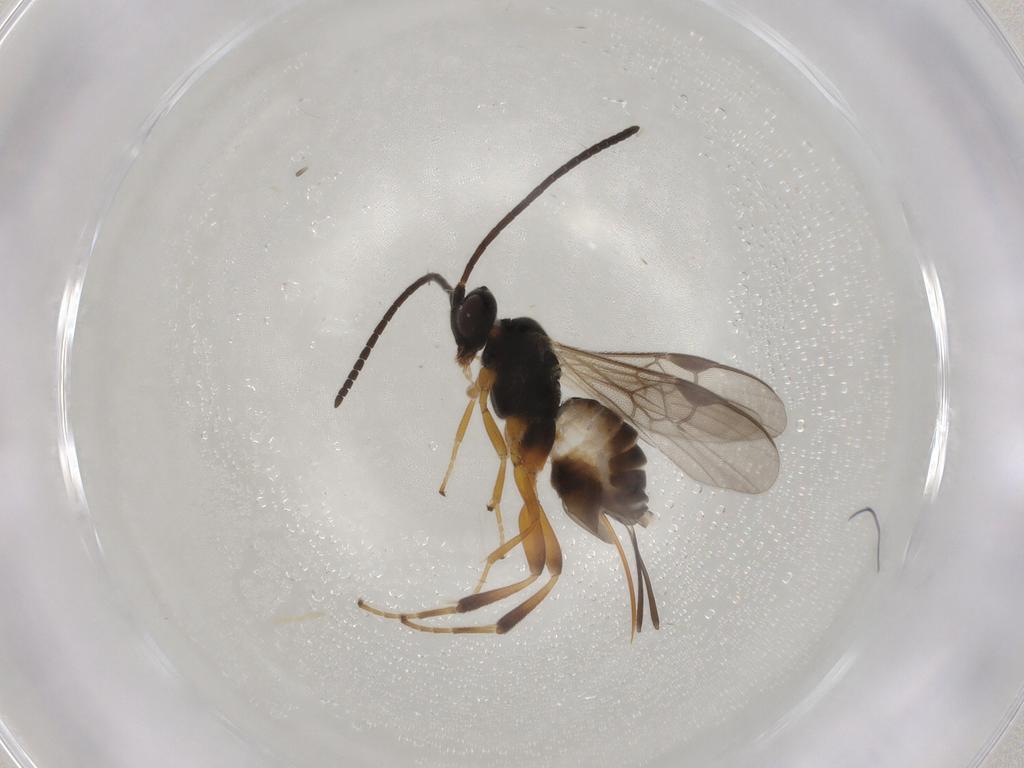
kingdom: Animalia
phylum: Arthropoda
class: Insecta
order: Hymenoptera
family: Braconidae
